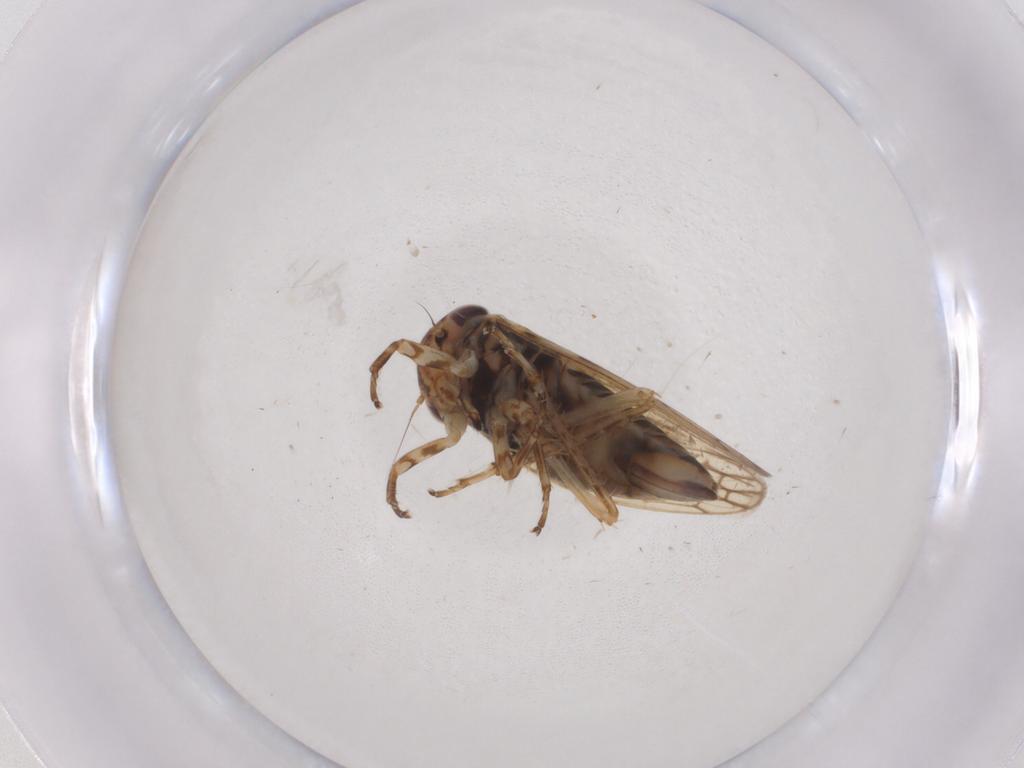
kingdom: Animalia
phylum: Arthropoda
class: Insecta
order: Hemiptera
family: Cicadellidae
